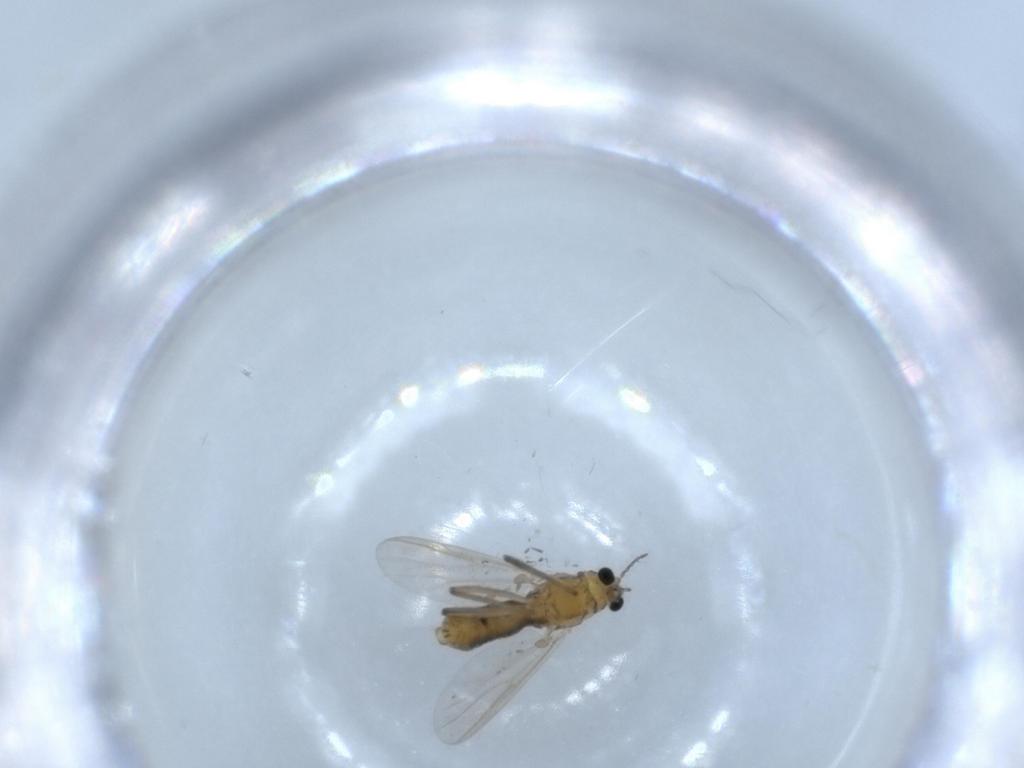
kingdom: Animalia
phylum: Arthropoda
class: Insecta
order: Diptera
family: Chironomidae
